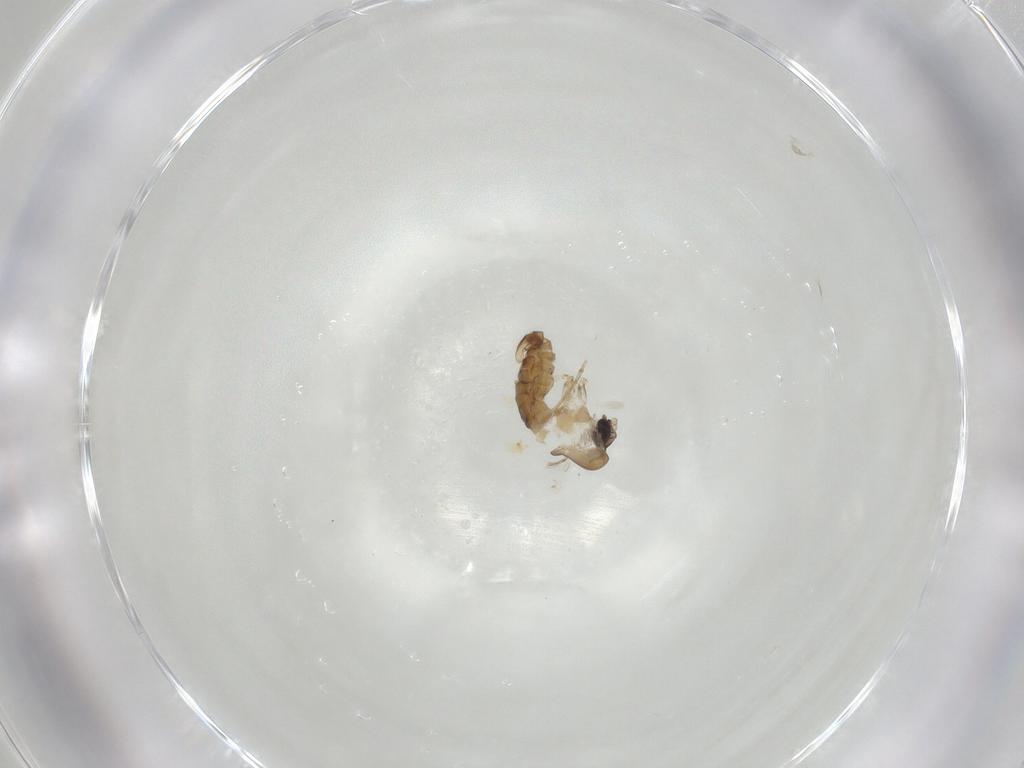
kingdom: Animalia
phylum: Arthropoda
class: Insecta
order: Diptera
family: Psychodidae
